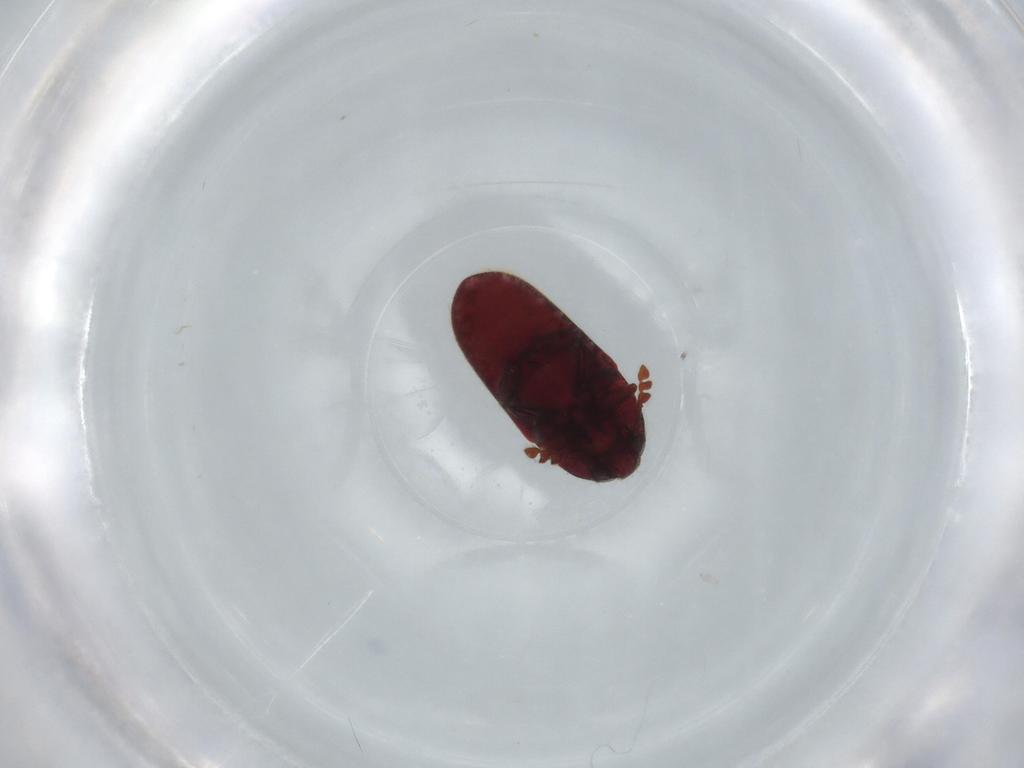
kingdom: Animalia
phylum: Arthropoda
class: Insecta
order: Coleoptera
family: Throscidae
